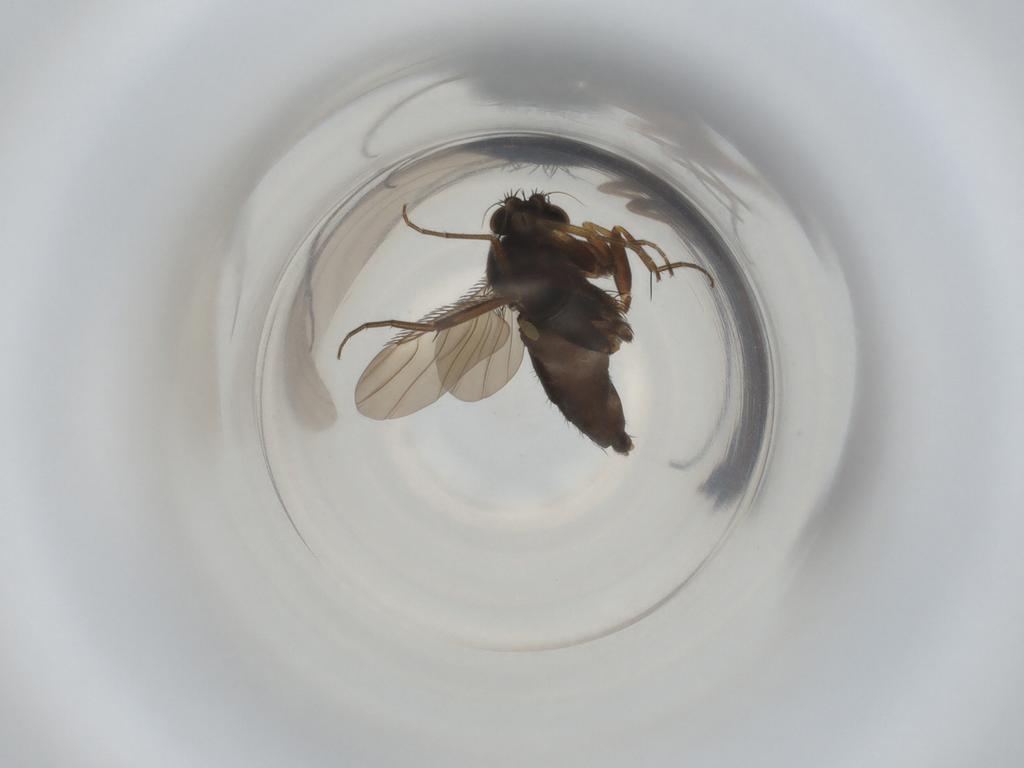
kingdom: Animalia
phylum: Arthropoda
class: Insecta
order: Diptera
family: Phoridae
